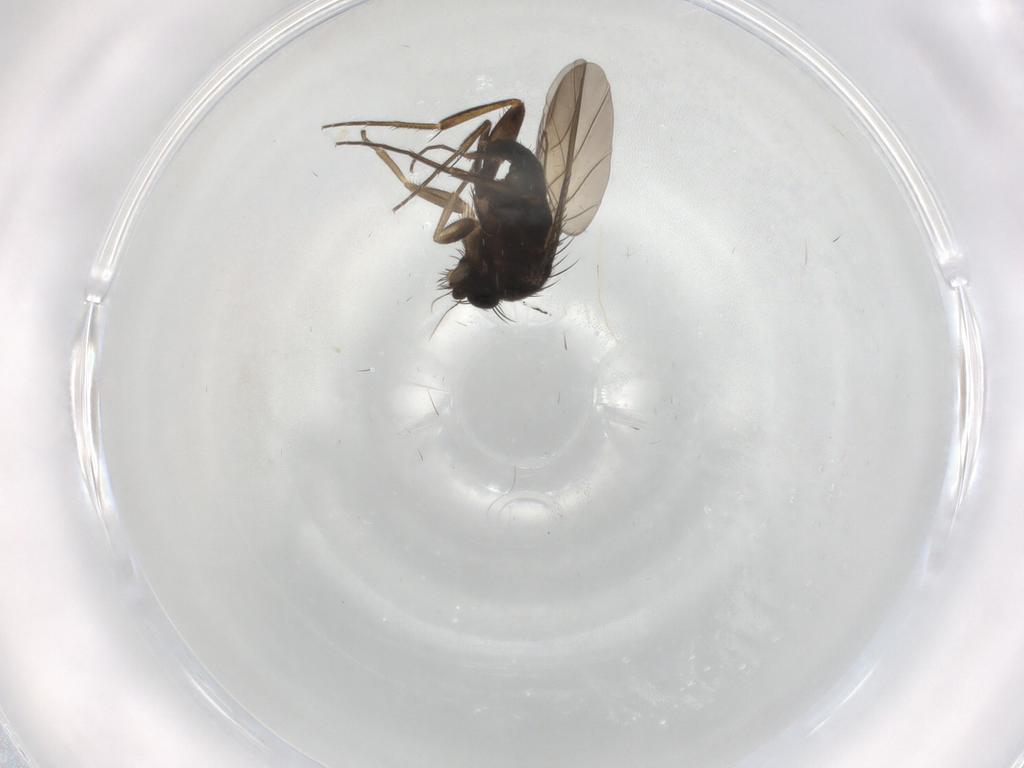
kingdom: Animalia
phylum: Arthropoda
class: Insecta
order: Diptera
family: Phoridae
